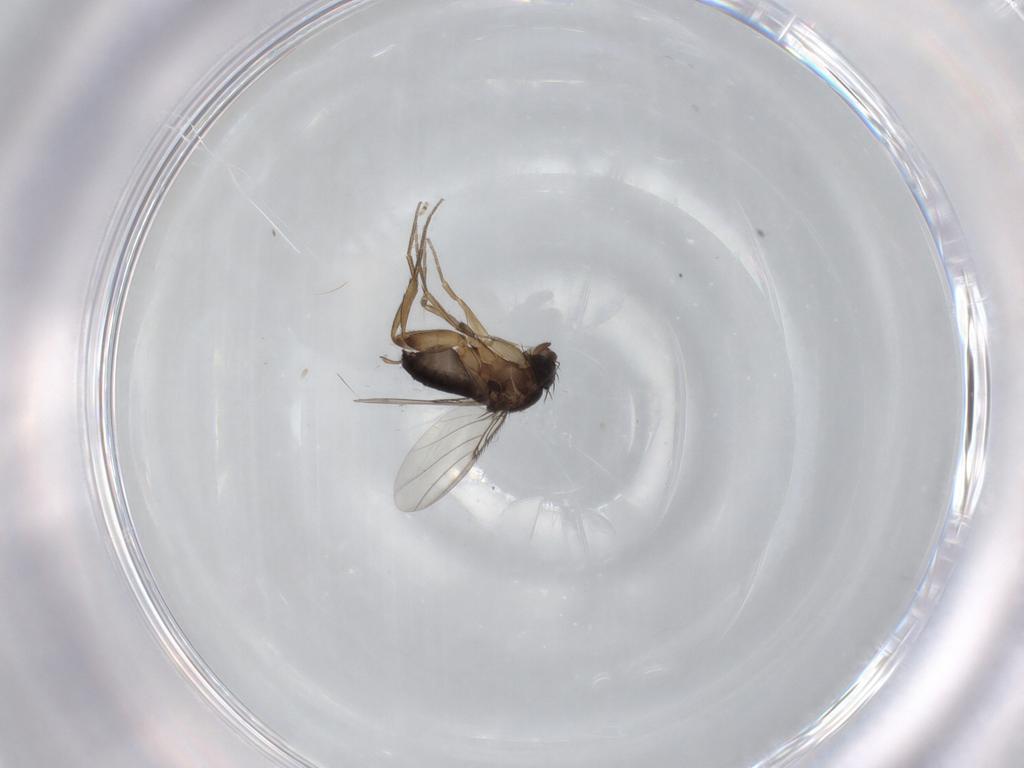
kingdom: Animalia
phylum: Arthropoda
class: Insecta
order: Diptera
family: Chironomidae
